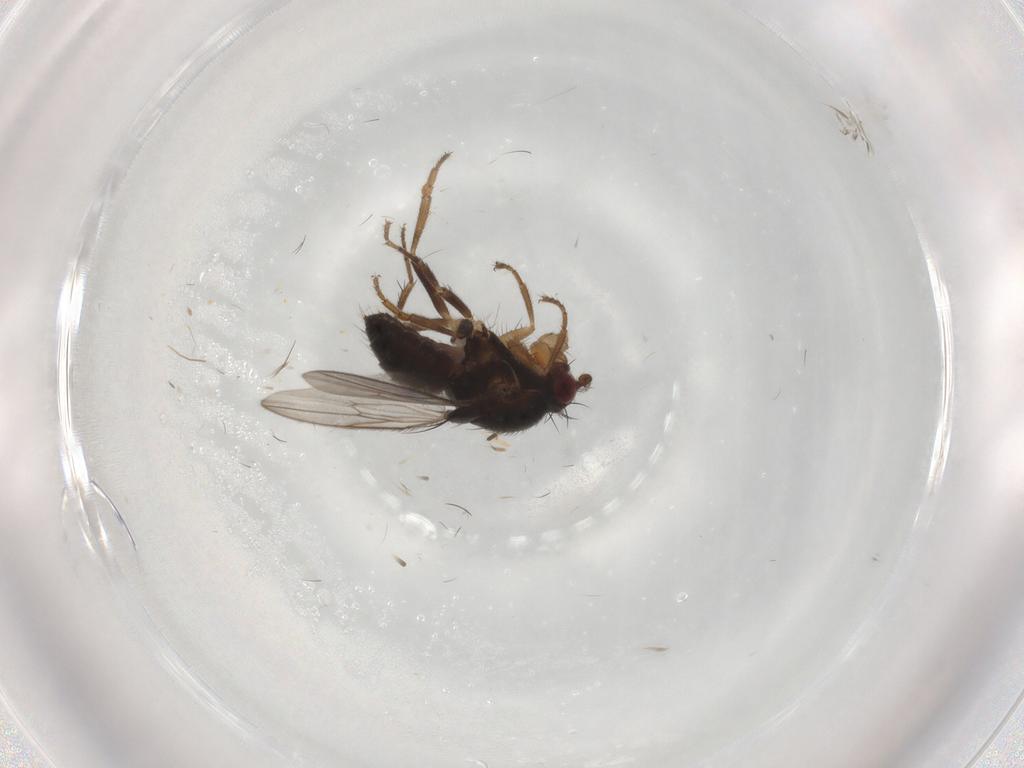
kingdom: Animalia
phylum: Arthropoda
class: Insecta
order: Diptera
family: Sphaeroceridae
